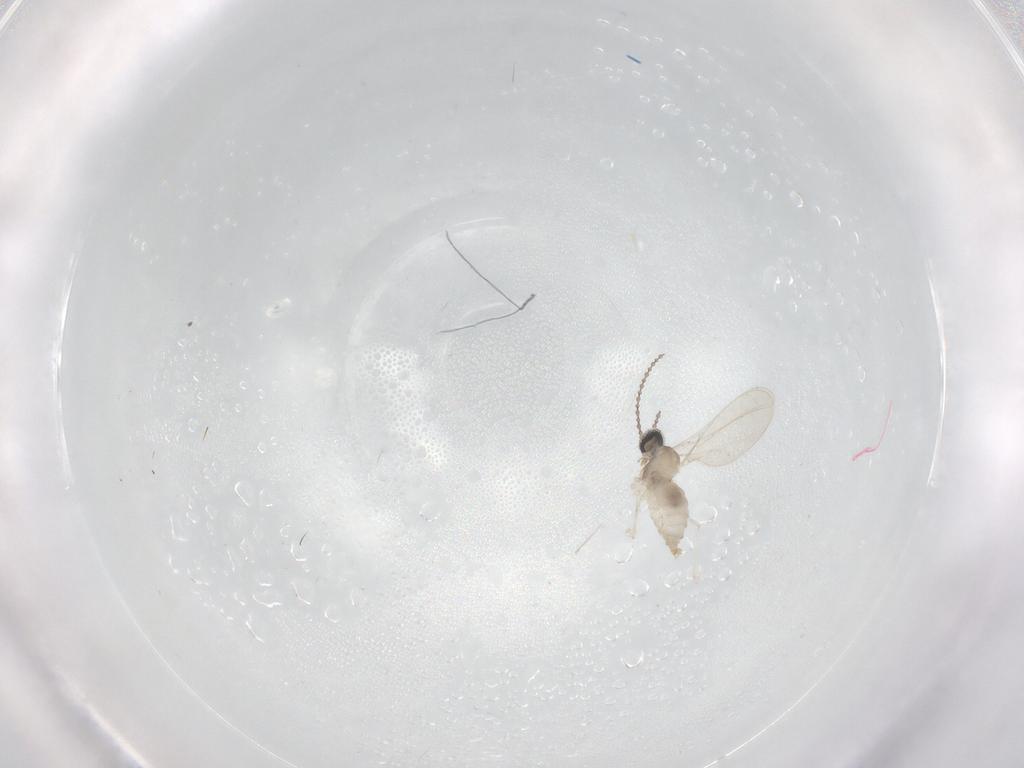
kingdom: Animalia
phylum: Arthropoda
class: Insecta
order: Diptera
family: Cecidomyiidae
